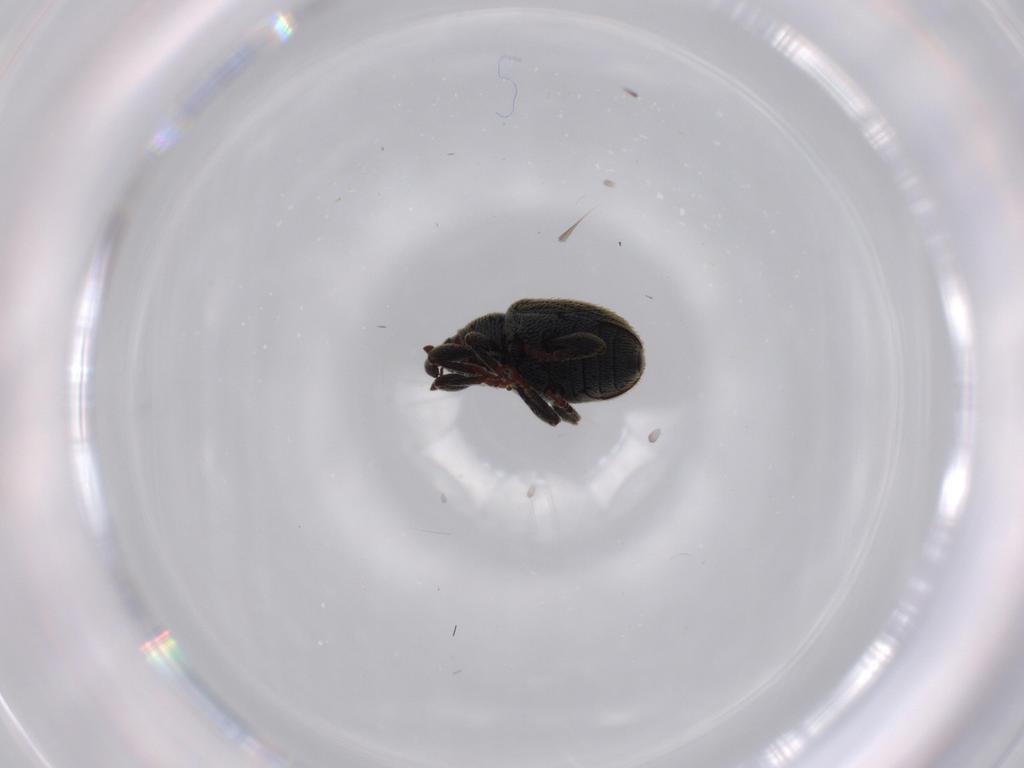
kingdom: Animalia
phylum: Arthropoda
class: Insecta
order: Coleoptera
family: Curculionidae
